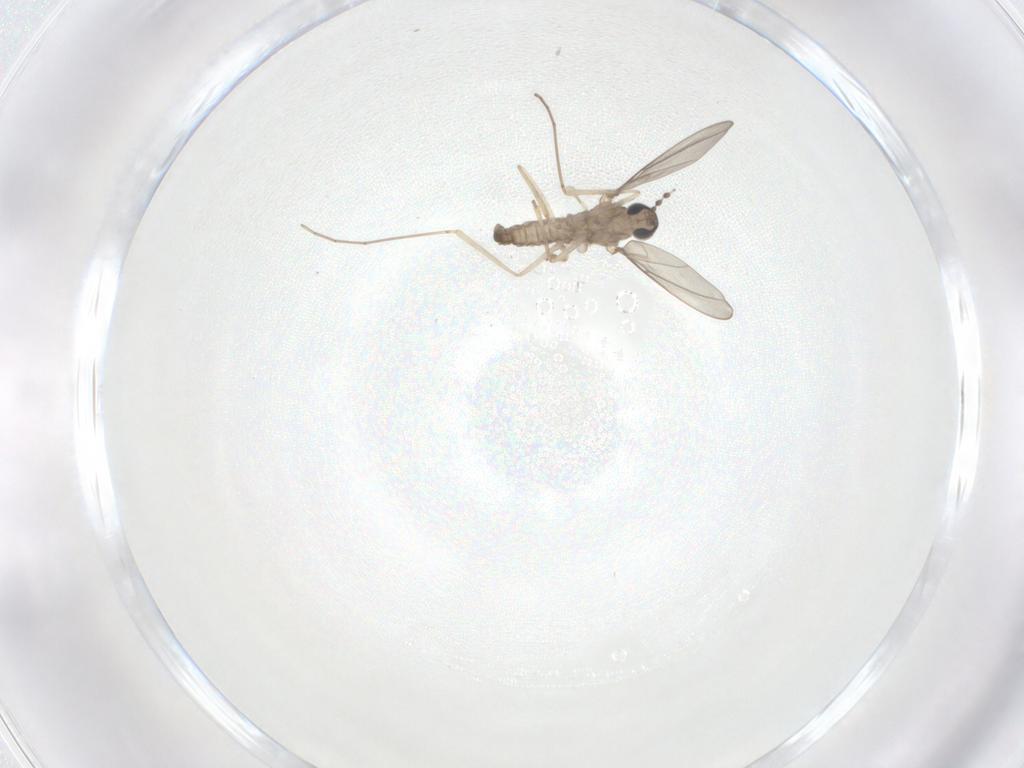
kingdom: Animalia
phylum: Arthropoda
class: Insecta
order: Diptera
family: Cecidomyiidae
